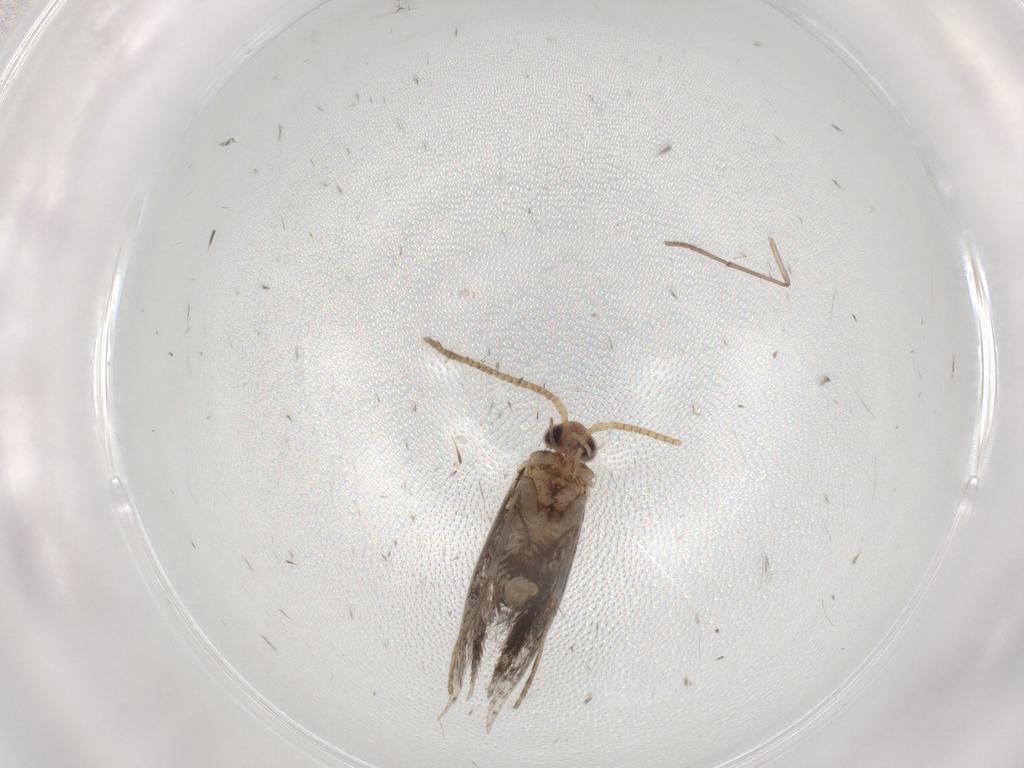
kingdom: Animalia
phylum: Arthropoda
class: Insecta
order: Lepidoptera
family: Tineidae
